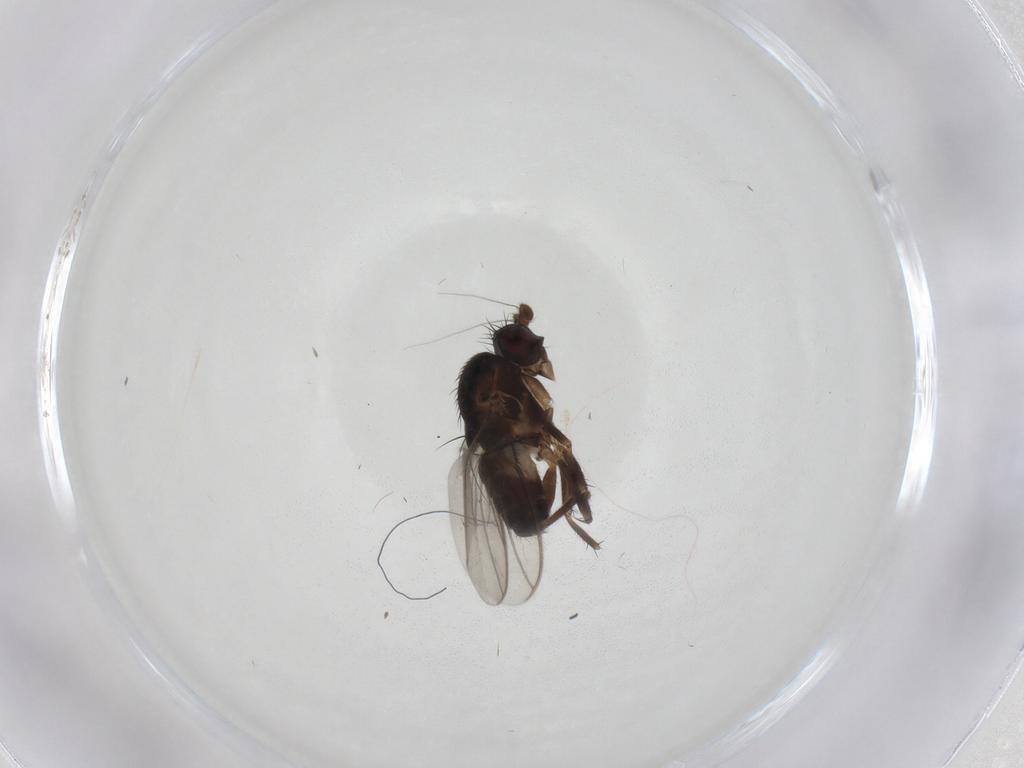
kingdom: Animalia
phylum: Arthropoda
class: Insecta
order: Diptera
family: Sphaeroceridae
